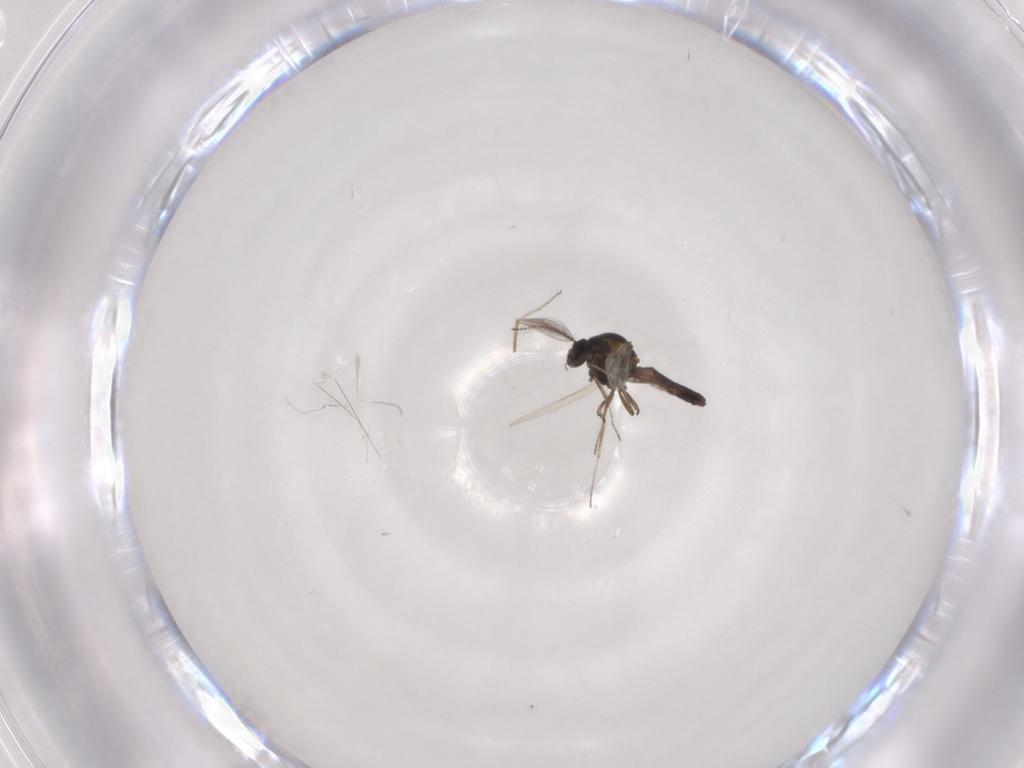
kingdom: Animalia
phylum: Arthropoda
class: Insecta
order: Diptera
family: Ceratopogonidae
